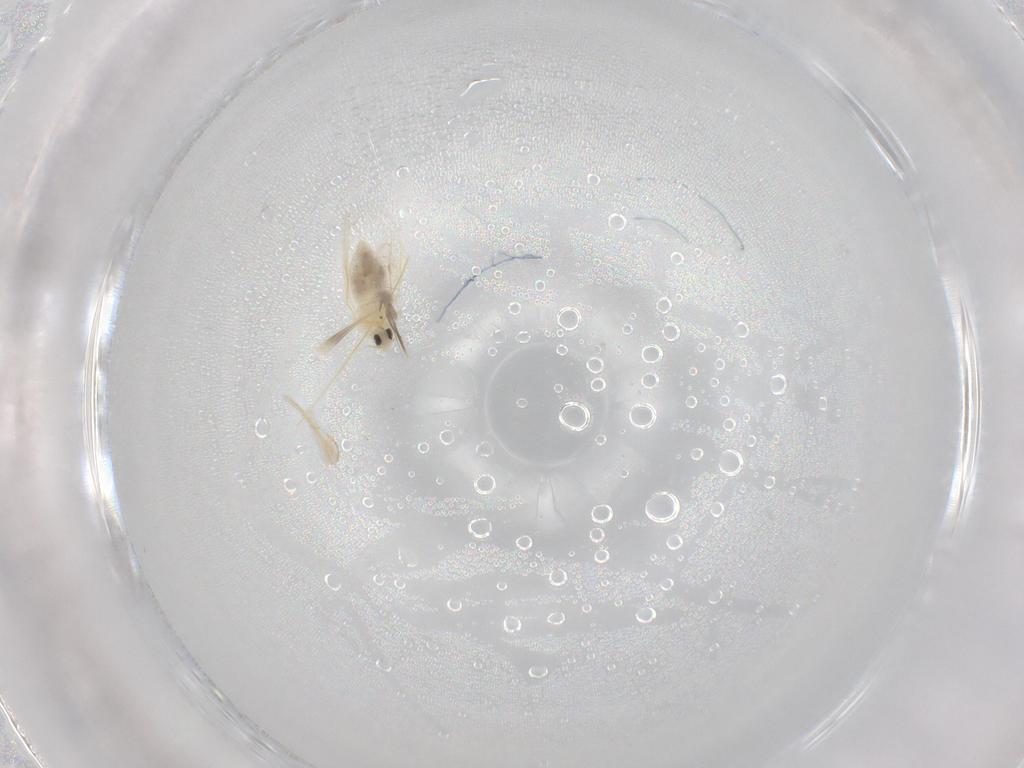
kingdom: Animalia
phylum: Arthropoda
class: Insecta
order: Hemiptera
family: Aleyrodidae
